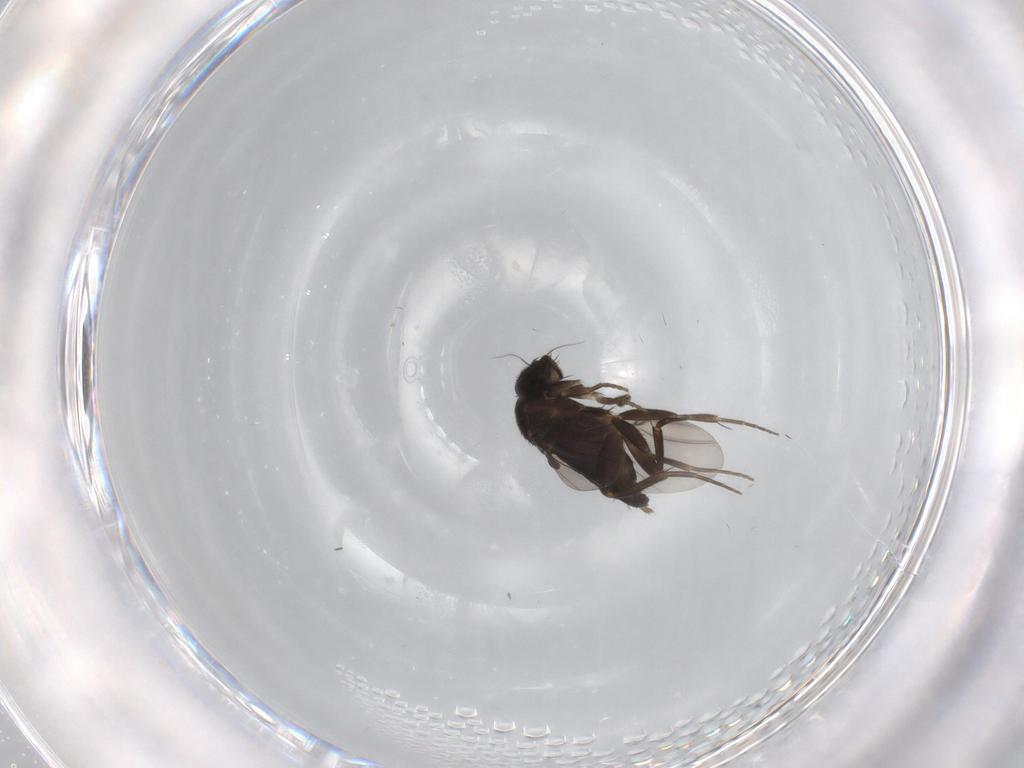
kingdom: Animalia
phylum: Arthropoda
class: Insecta
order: Diptera
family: Phoridae
